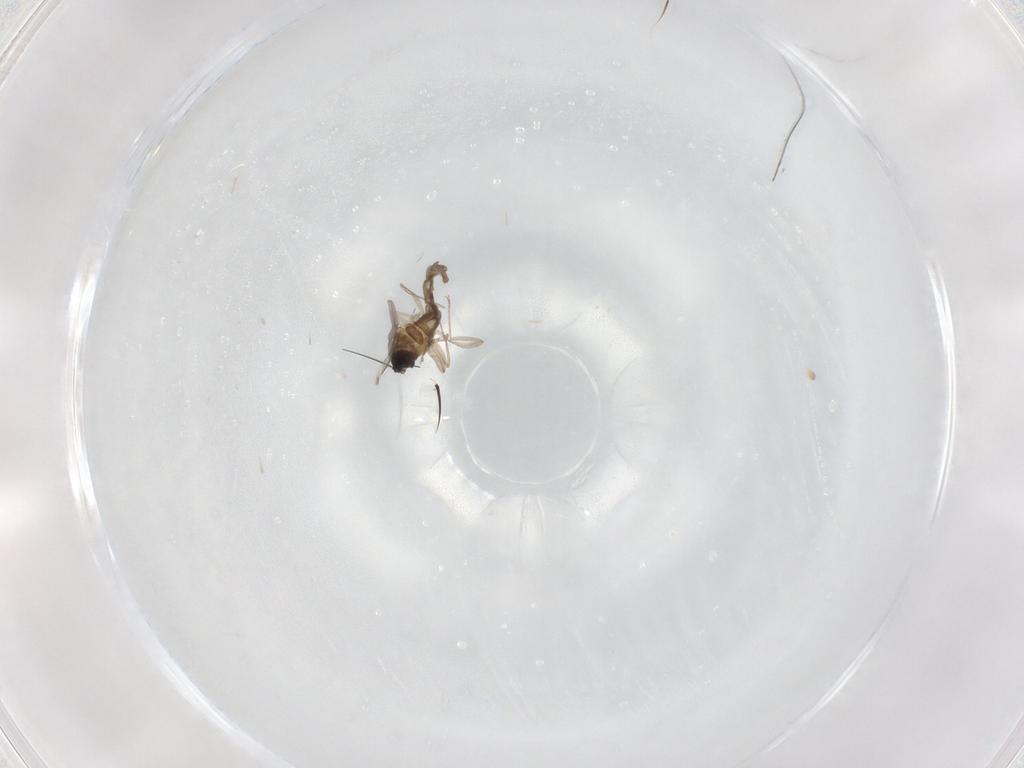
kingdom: Animalia
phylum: Arthropoda
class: Insecta
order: Diptera
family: Cecidomyiidae
